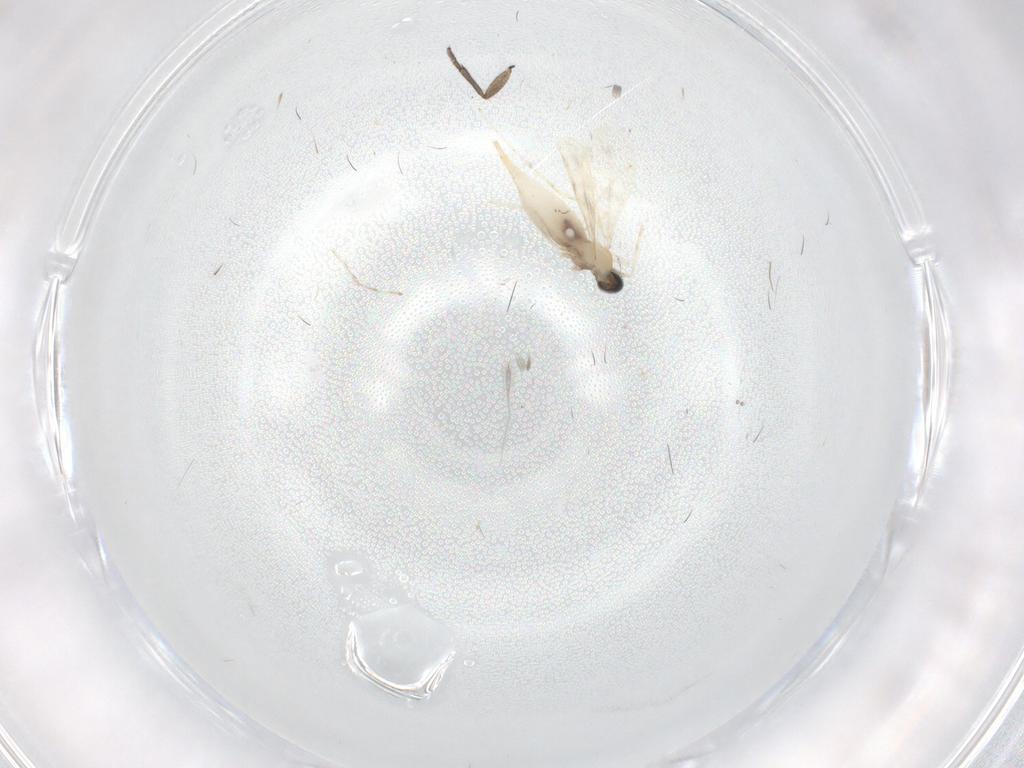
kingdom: Animalia
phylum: Arthropoda
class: Insecta
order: Diptera
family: Sciaridae
